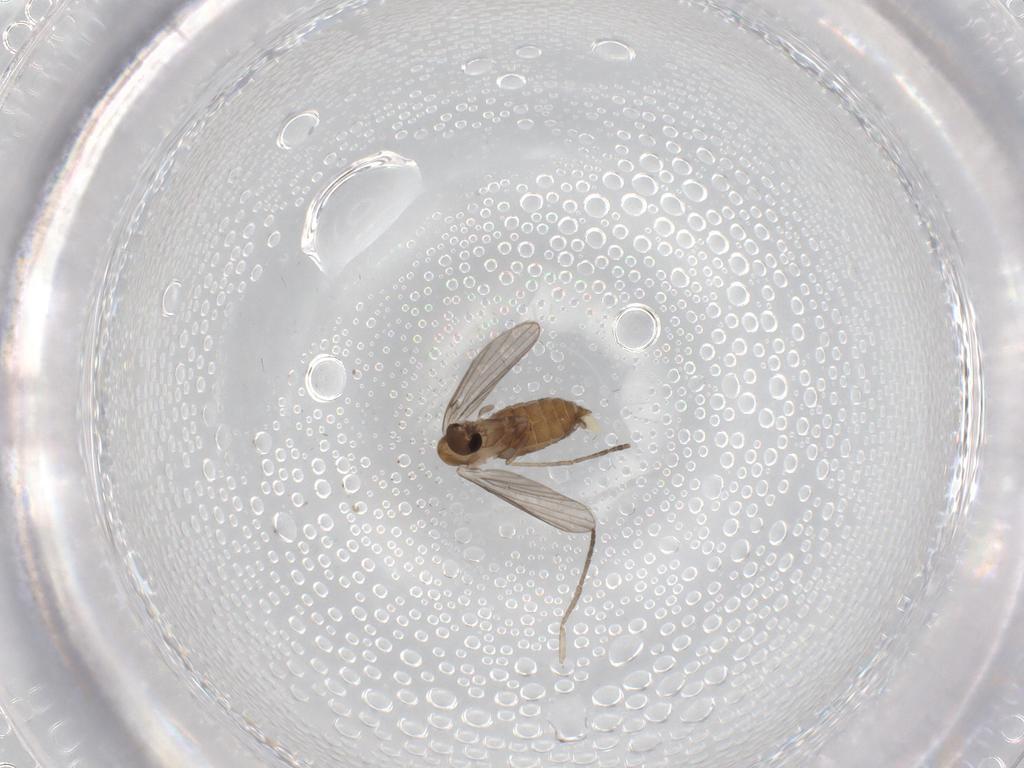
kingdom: Animalia
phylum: Arthropoda
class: Insecta
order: Diptera
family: Psychodidae
